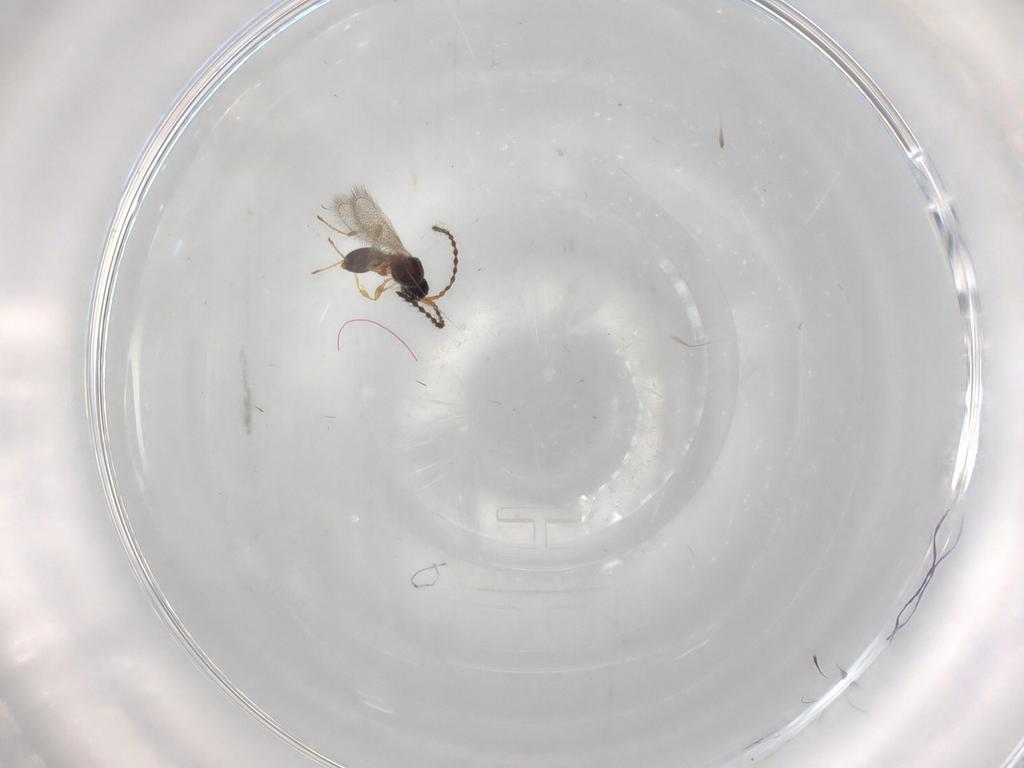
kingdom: Animalia
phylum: Arthropoda
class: Insecta
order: Hymenoptera
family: Diapriidae
